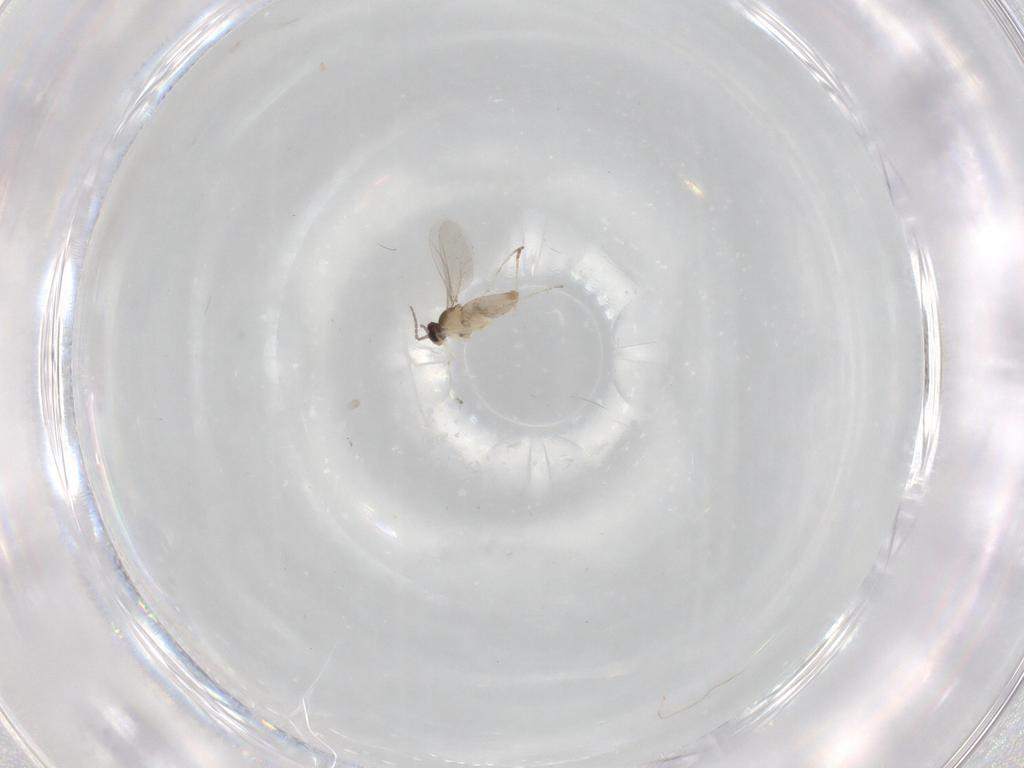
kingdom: Animalia
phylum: Arthropoda
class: Insecta
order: Diptera
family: Cecidomyiidae
